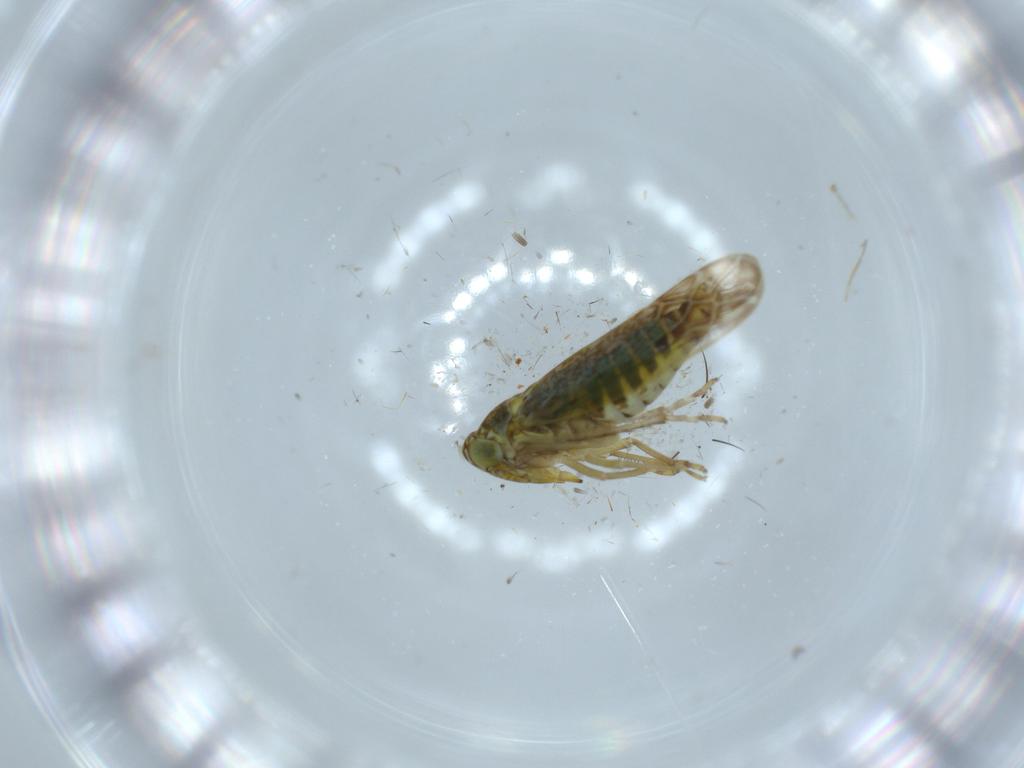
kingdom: Animalia
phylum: Arthropoda
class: Insecta
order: Hemiptera
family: Cicadellidae
